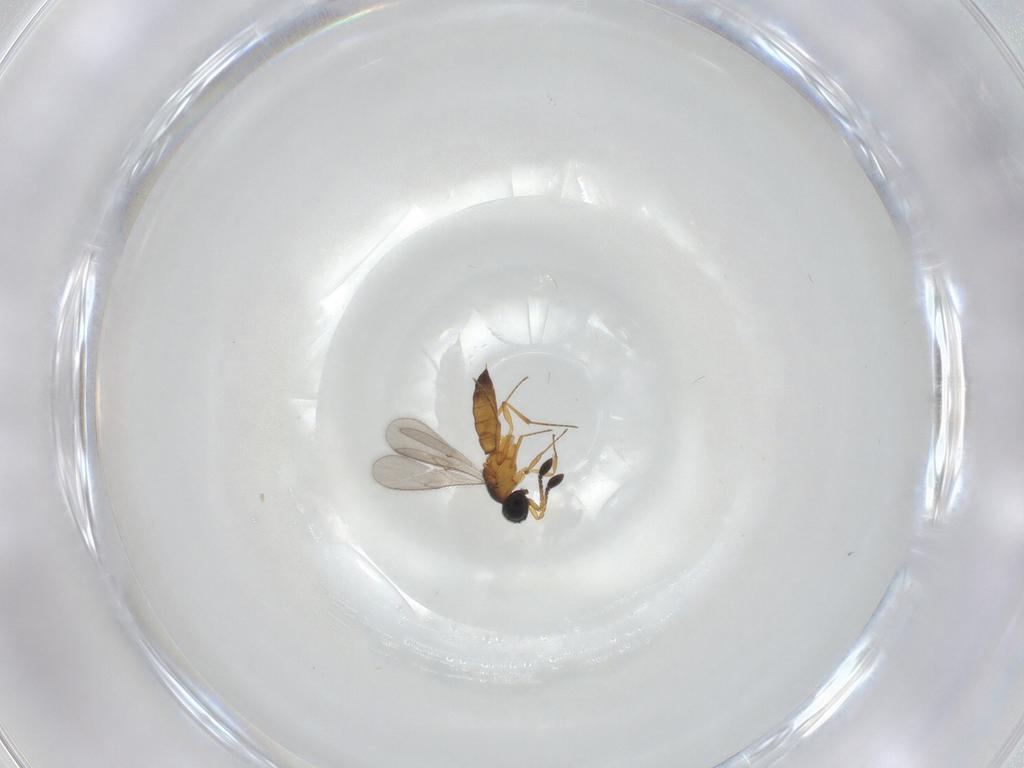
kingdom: Animalia
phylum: Arthropoda
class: Insecta
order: Hymenoptera
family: Scelionidae
